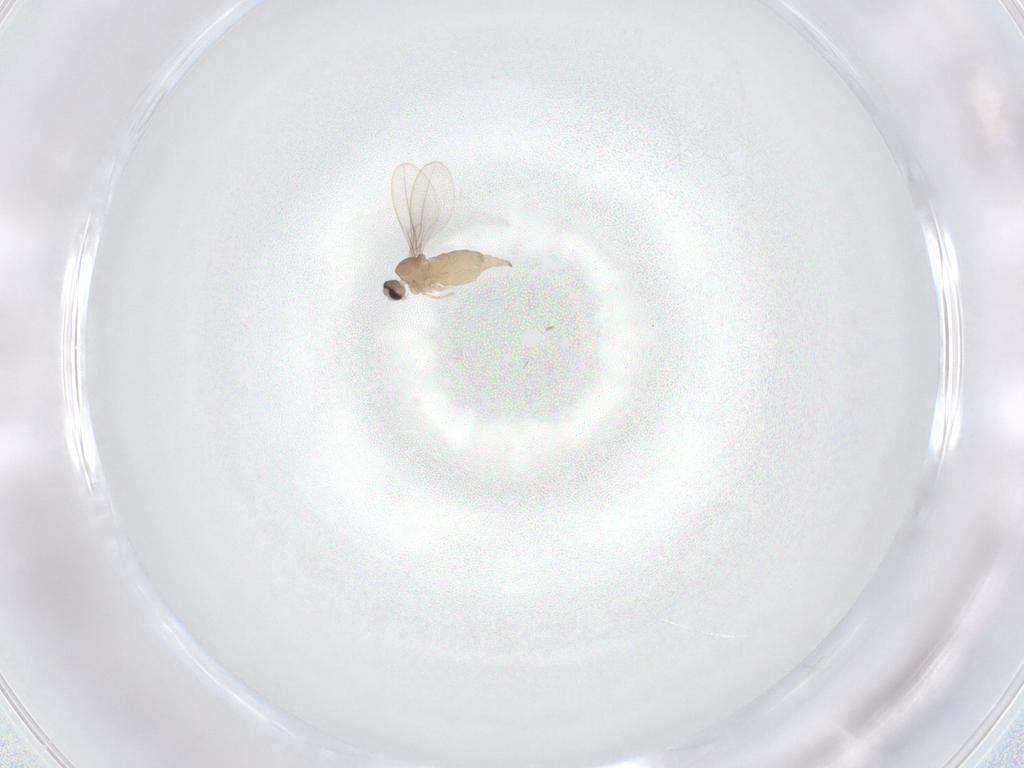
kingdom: Animalia
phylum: Arthropoda
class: Insecta
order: Diptera
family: Cecidomyiidae
